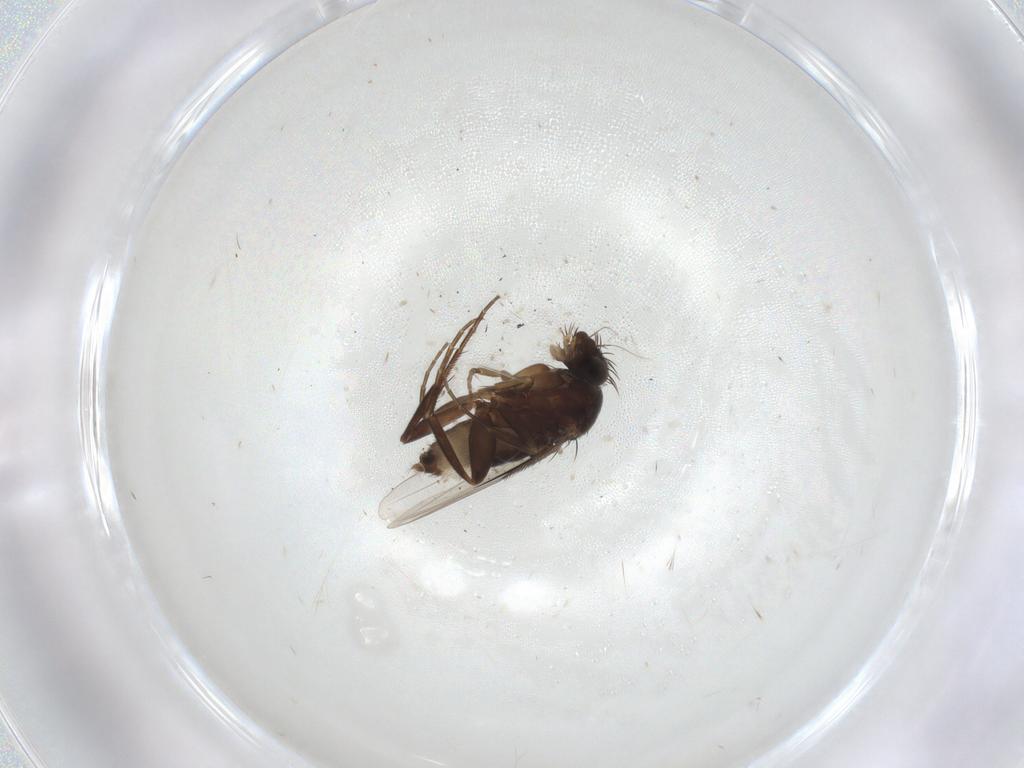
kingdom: Animalia
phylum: Arthropoda
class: Insecta
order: Diptera
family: Phoridae
